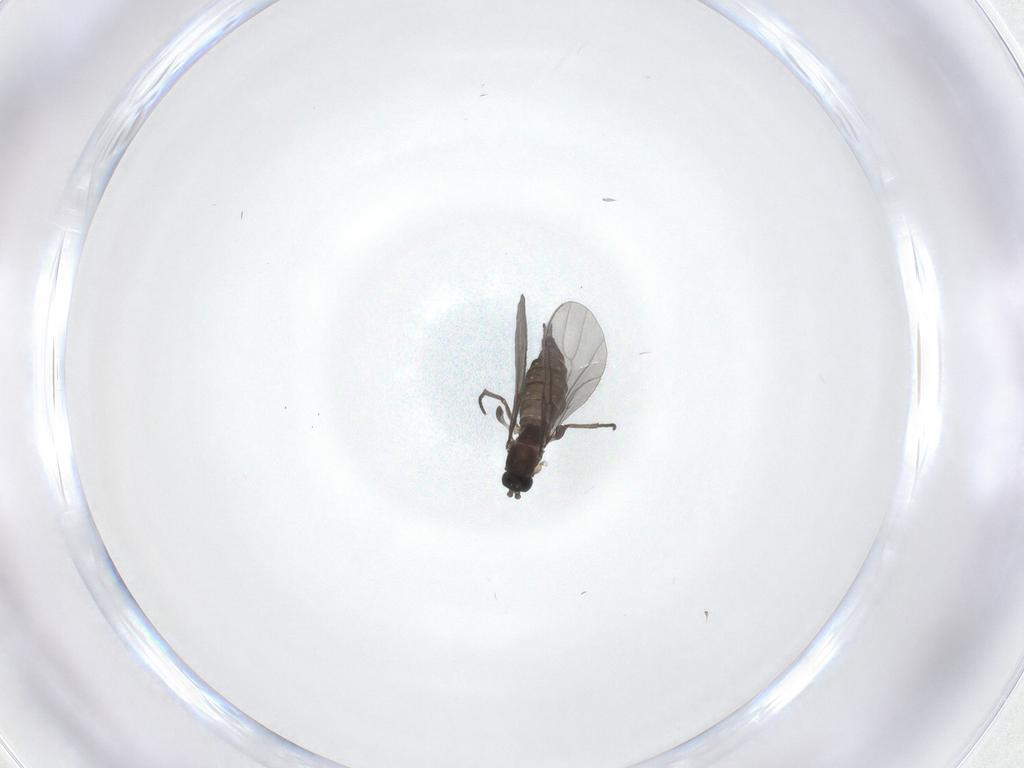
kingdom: Animalia
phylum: Arthropoda
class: Insecta
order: Diptera
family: Sciaridae
